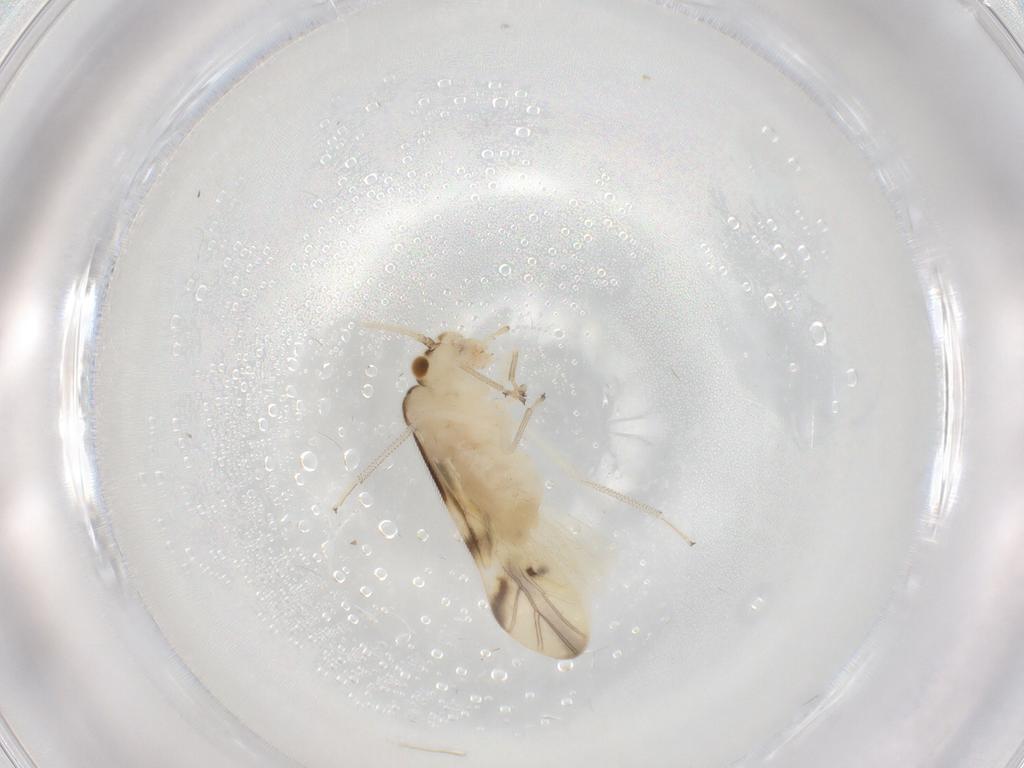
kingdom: Animalia
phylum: Arthropoda
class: Insecta
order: Psocodea
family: Caeciliusidae
